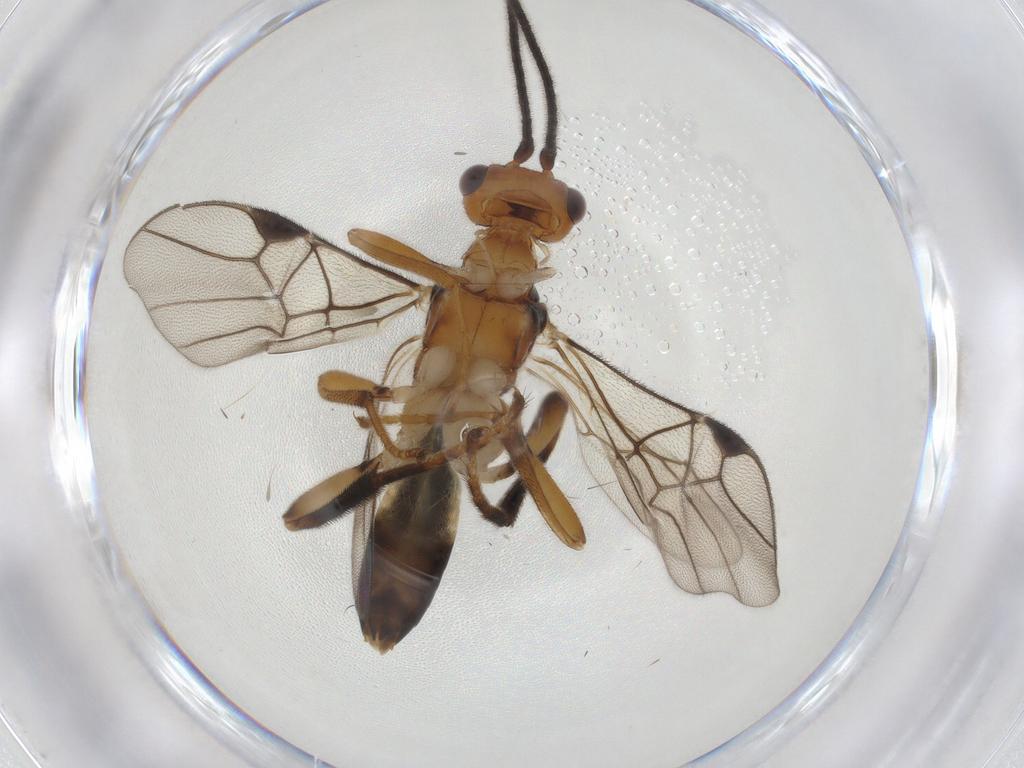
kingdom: Animalia
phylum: Arthropoda
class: Insecta
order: Hymenoptera
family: Braconidae
